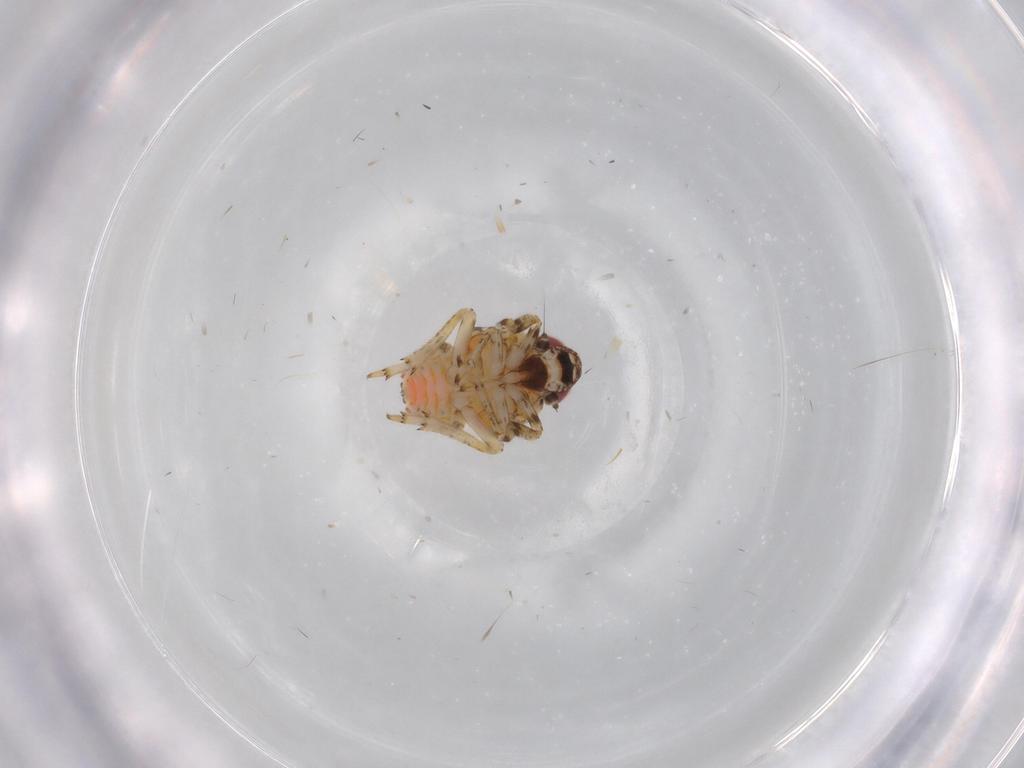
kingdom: Animalia
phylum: Arthropoda
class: Insecta
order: Hemiptera
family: Issidae
